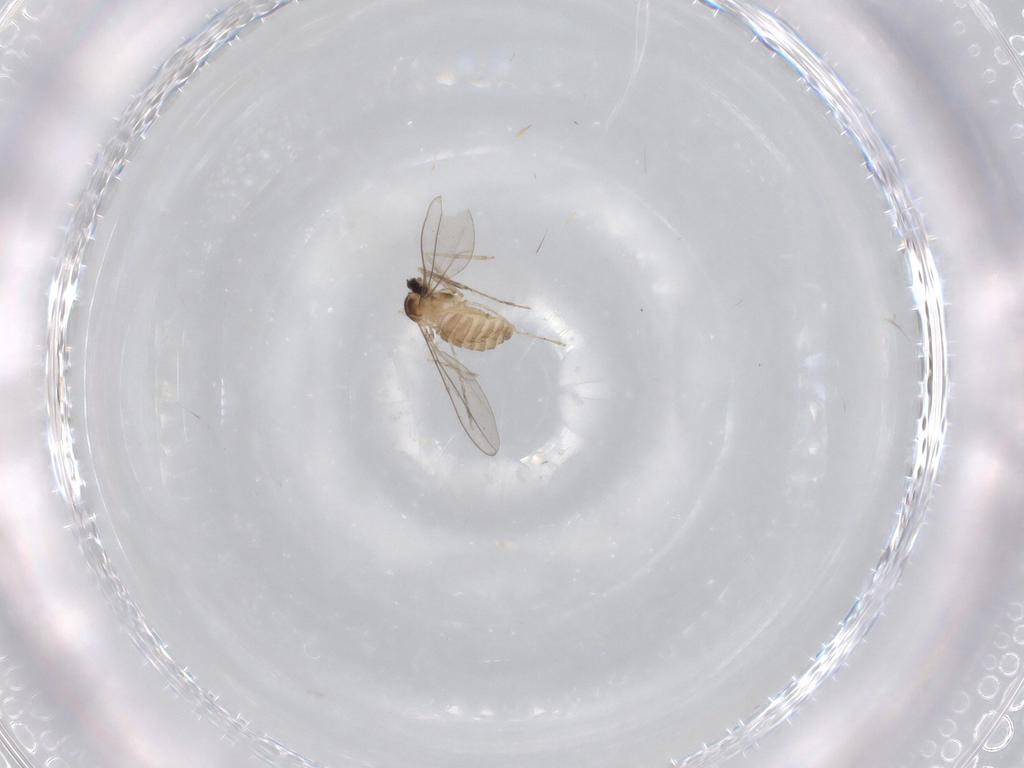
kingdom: Animalia
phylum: Arthropoda
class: Insecta
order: Diptera
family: Cecidomyiidae
